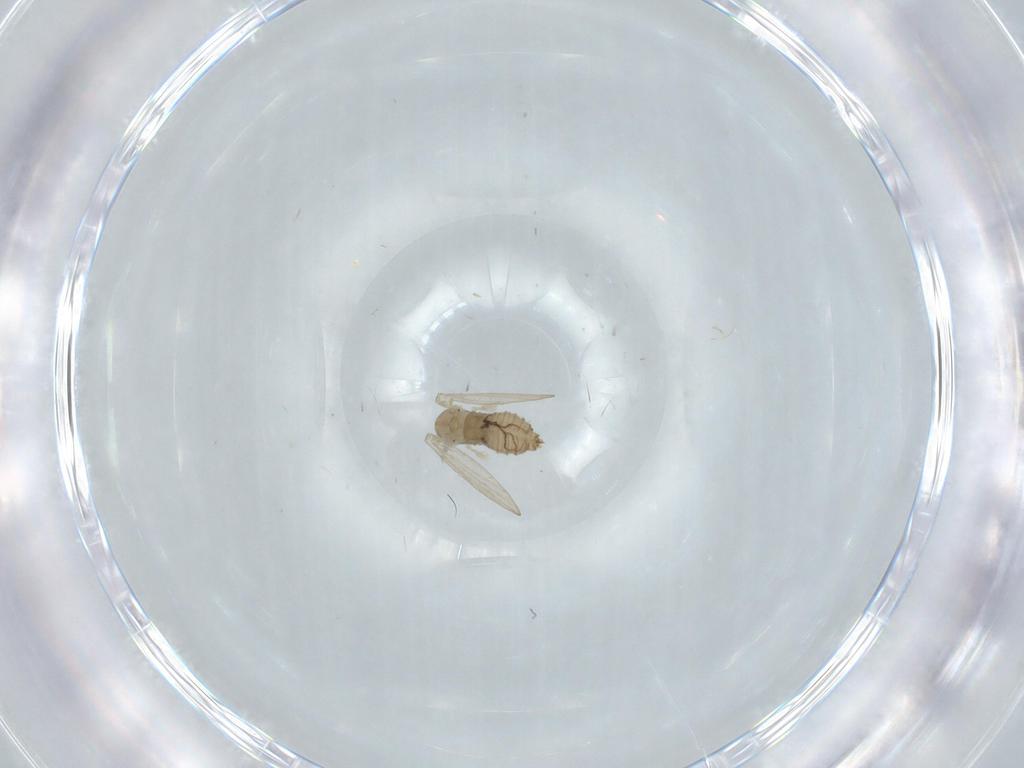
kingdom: Animalia
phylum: Arthropoda
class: Insecta
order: Diptera
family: Psychodidae
